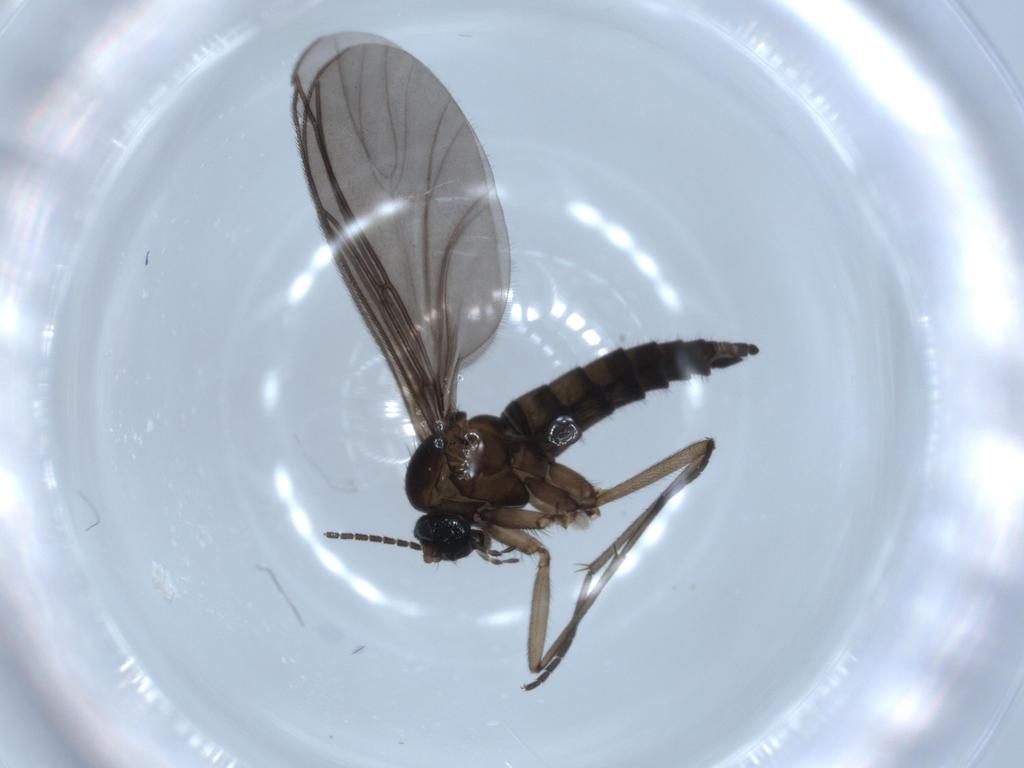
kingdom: Animalia
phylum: Arthropoda
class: Insecta
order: Diptera
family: Sciaridae
